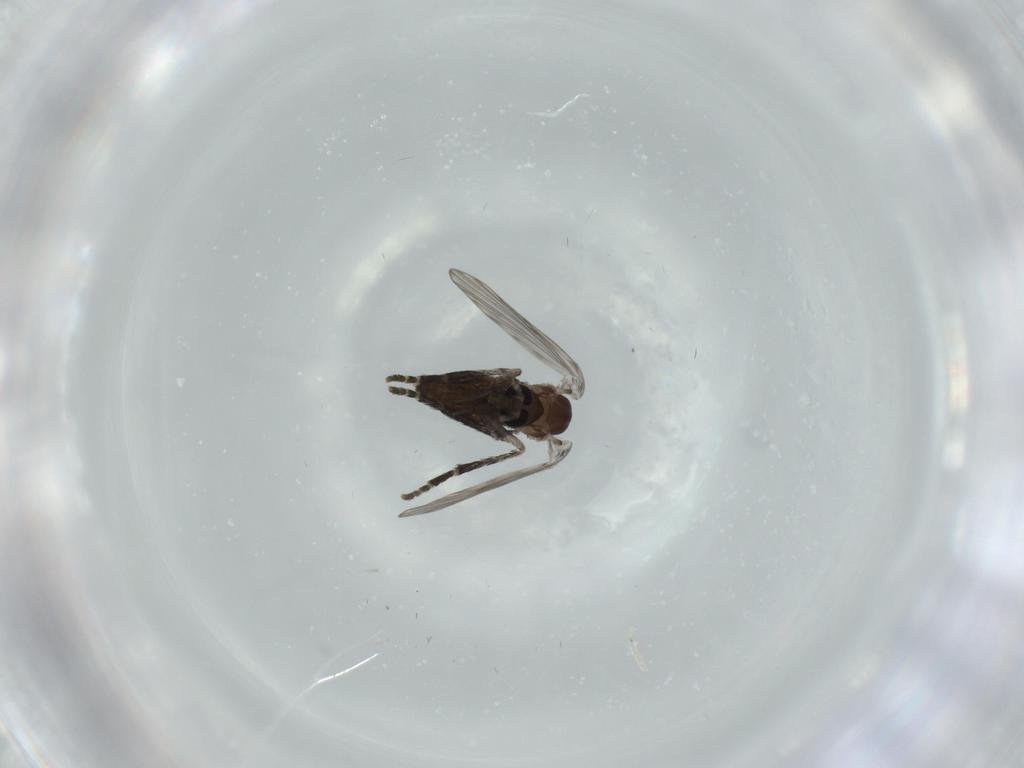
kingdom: Animalia
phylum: Arthropoda
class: Insecta
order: Diptera
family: Psychodidae
